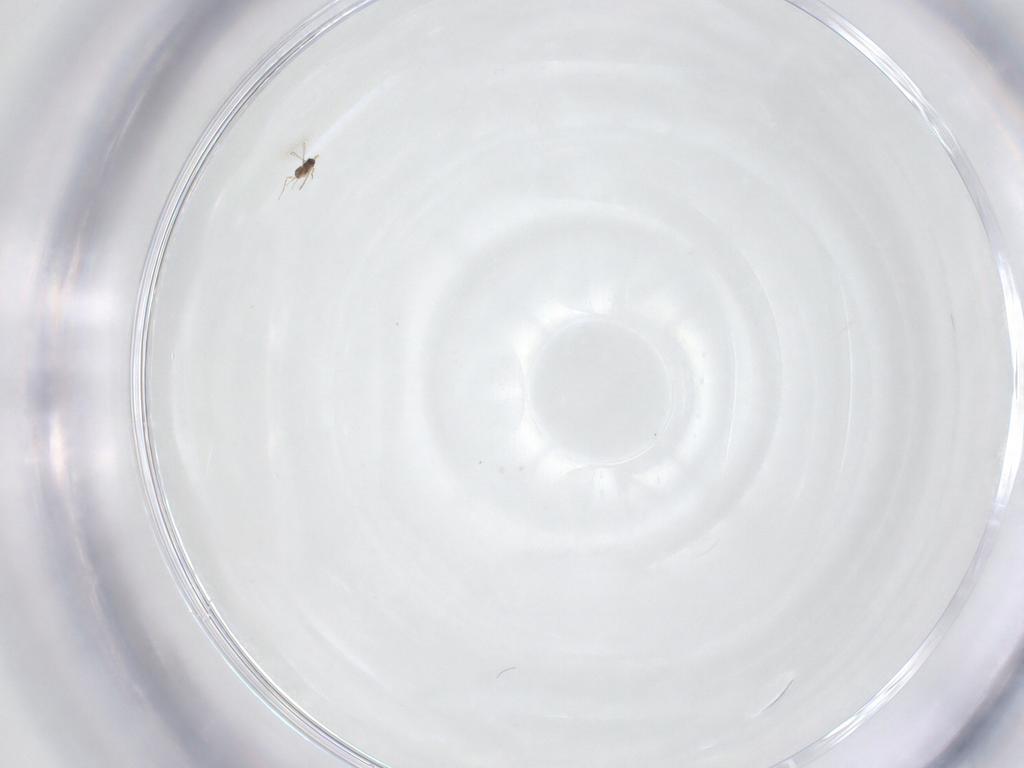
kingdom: Animalia
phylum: Arthropoda
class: Insecta
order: Hymenoptera
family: Mymaridae
